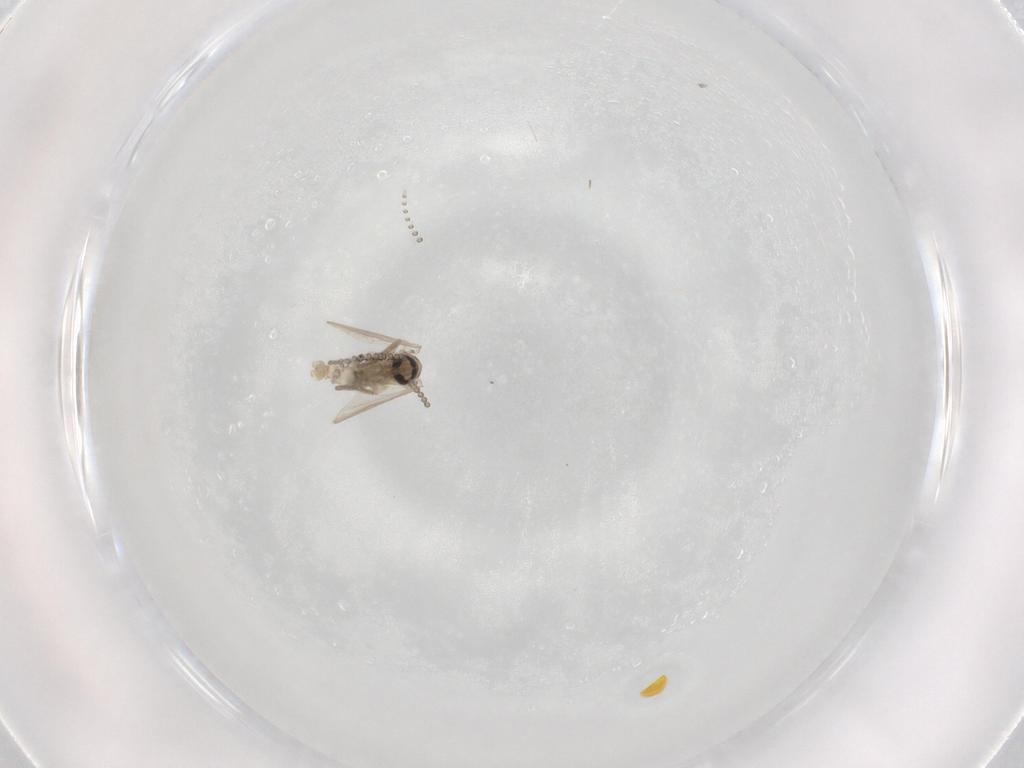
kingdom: Animalia
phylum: Arthropoda
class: Insecta
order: Diptera
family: Psychodidae
